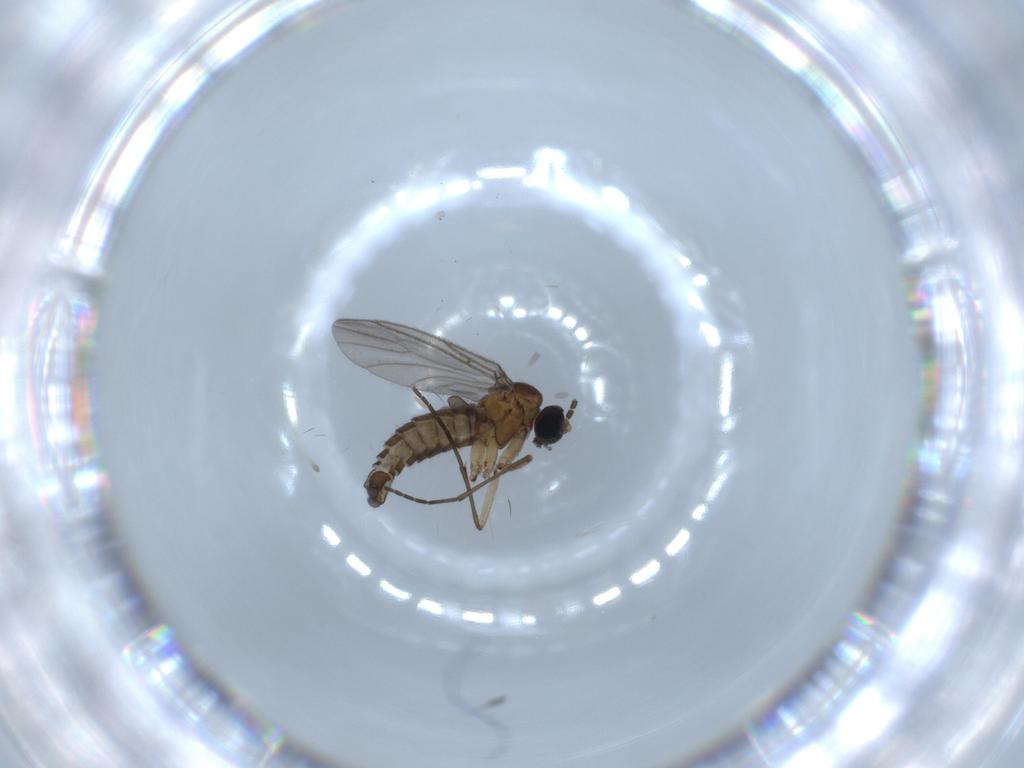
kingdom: Animalia
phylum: Arthropoda
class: Insecta
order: Diptera
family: Sciaridae
